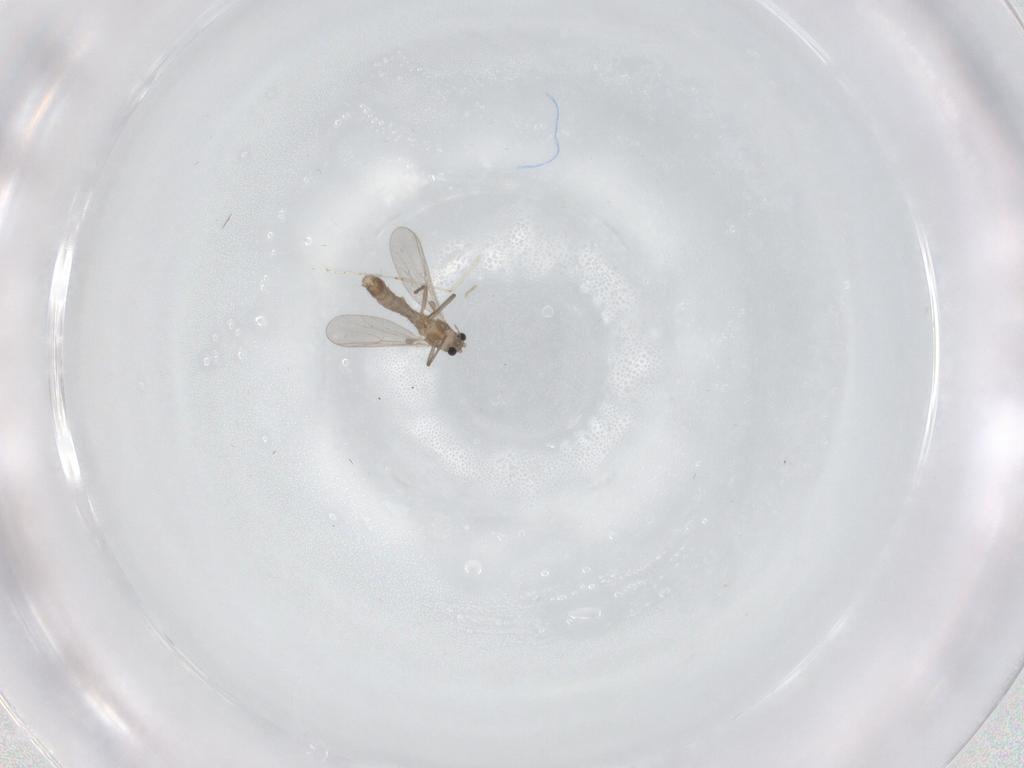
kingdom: Animalia
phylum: Arthropoda
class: Insecta
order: Diptera
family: Chironomidae
